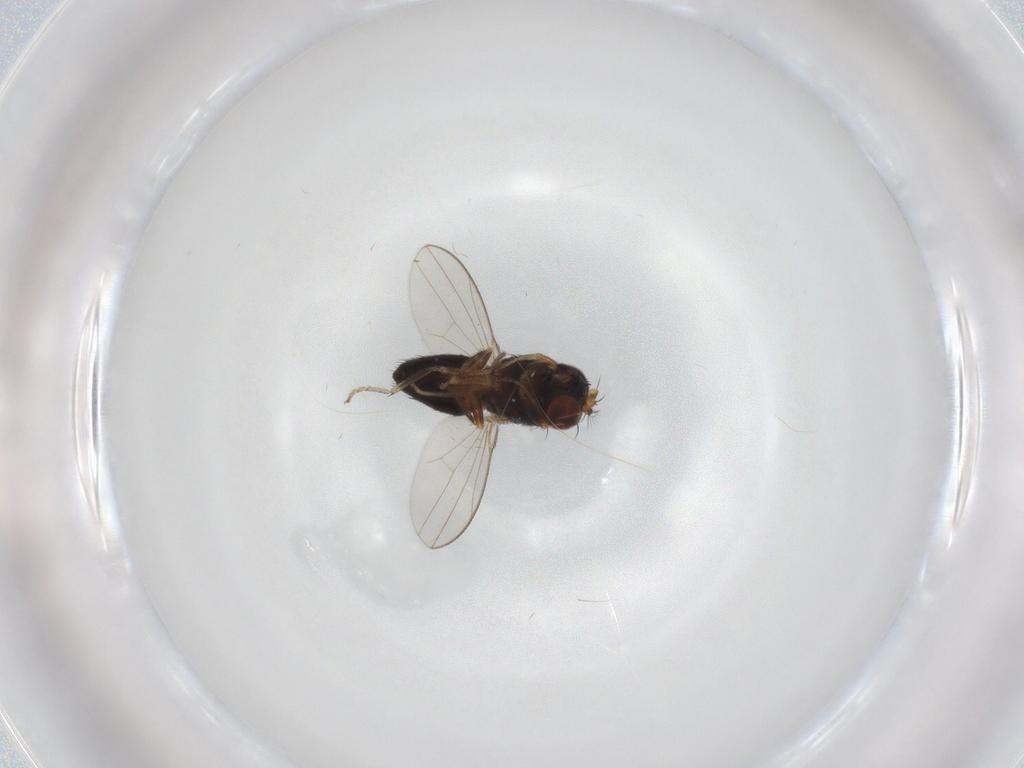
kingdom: Animalia
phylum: Arthropoda
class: Insecta
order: Diptera
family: Ephydridae
